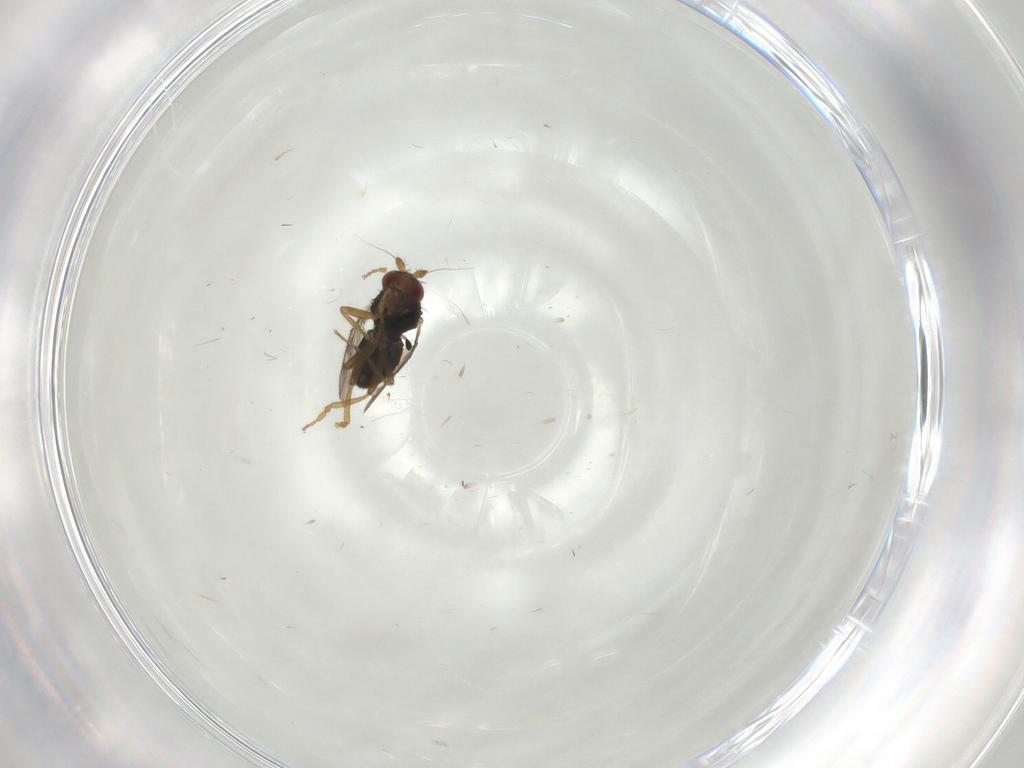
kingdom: Animalia
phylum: Arthropoda
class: Insecta
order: Diptera
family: Sphaeroceridae
